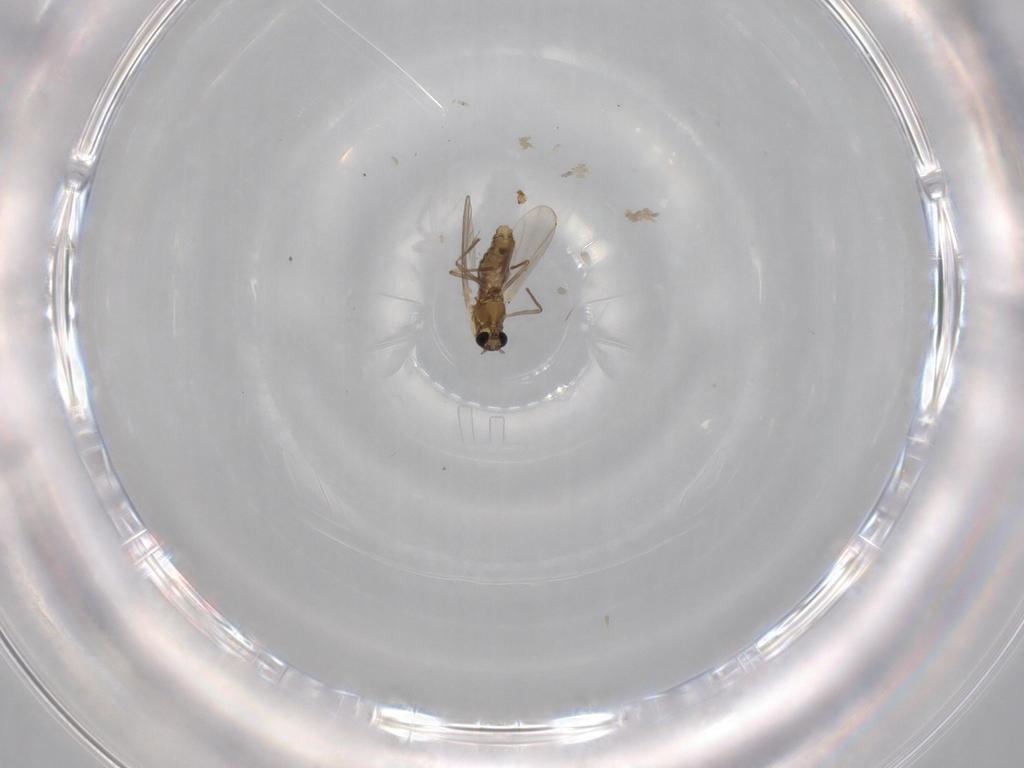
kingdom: Animalia
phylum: Arthropoda
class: Insecta
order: Diptera
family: Chironomidae
